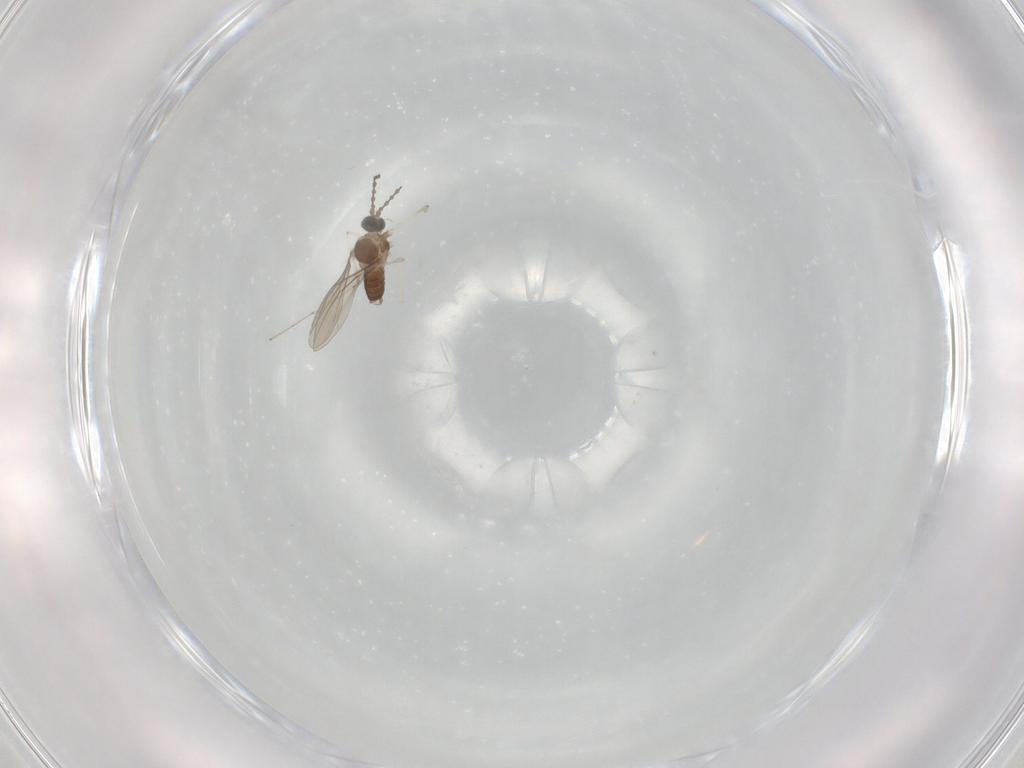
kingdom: Animalia
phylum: Arthropoda
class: Insecta
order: Diptera
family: Cecidomyiidae
